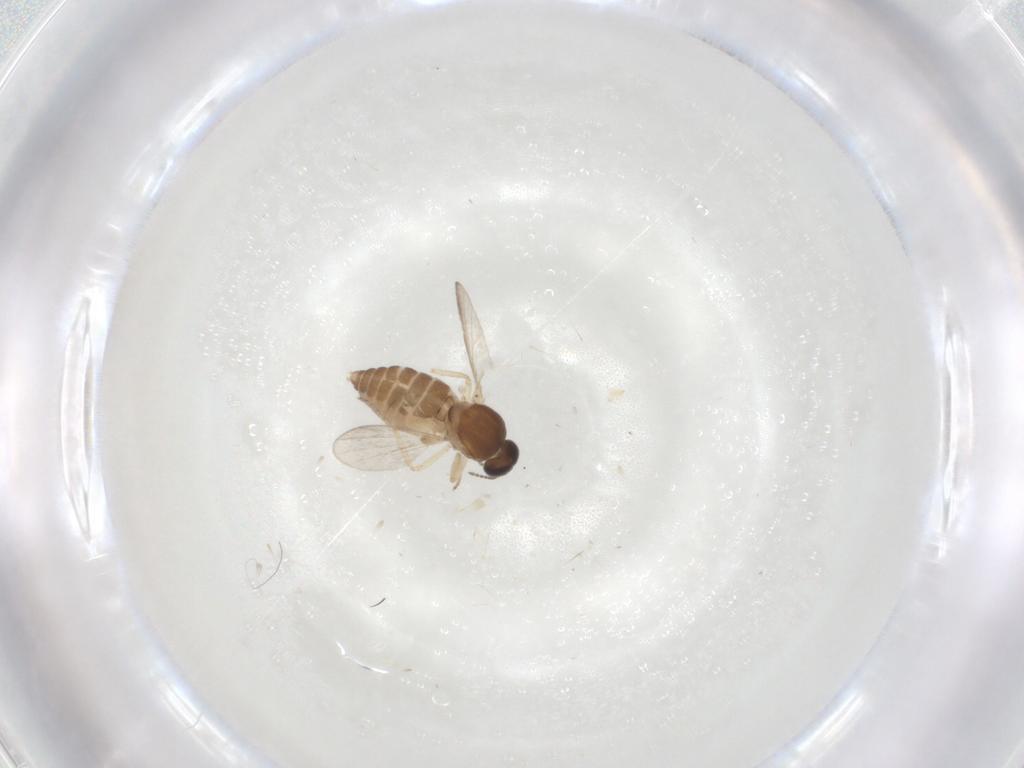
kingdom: Animalia
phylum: Arthropoda
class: Insecta
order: Diptera
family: Ceratopogonidae
